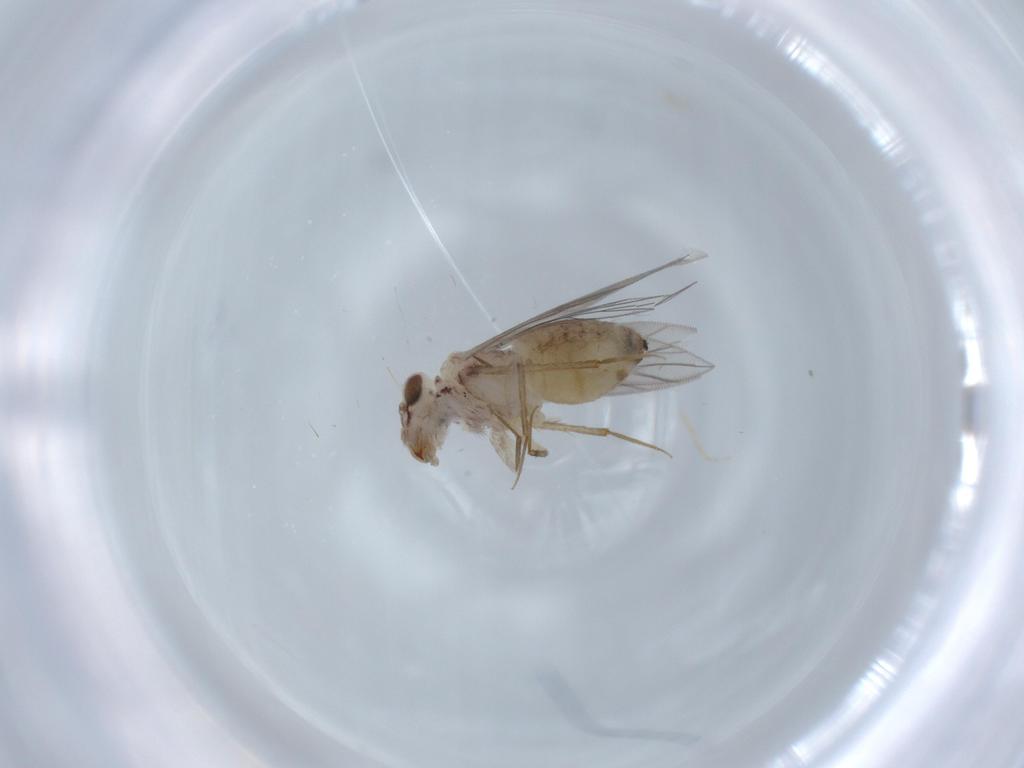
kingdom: Animalia
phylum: Arthropoda
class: Insecta
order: Psocodea
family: Lepidopsocidae
